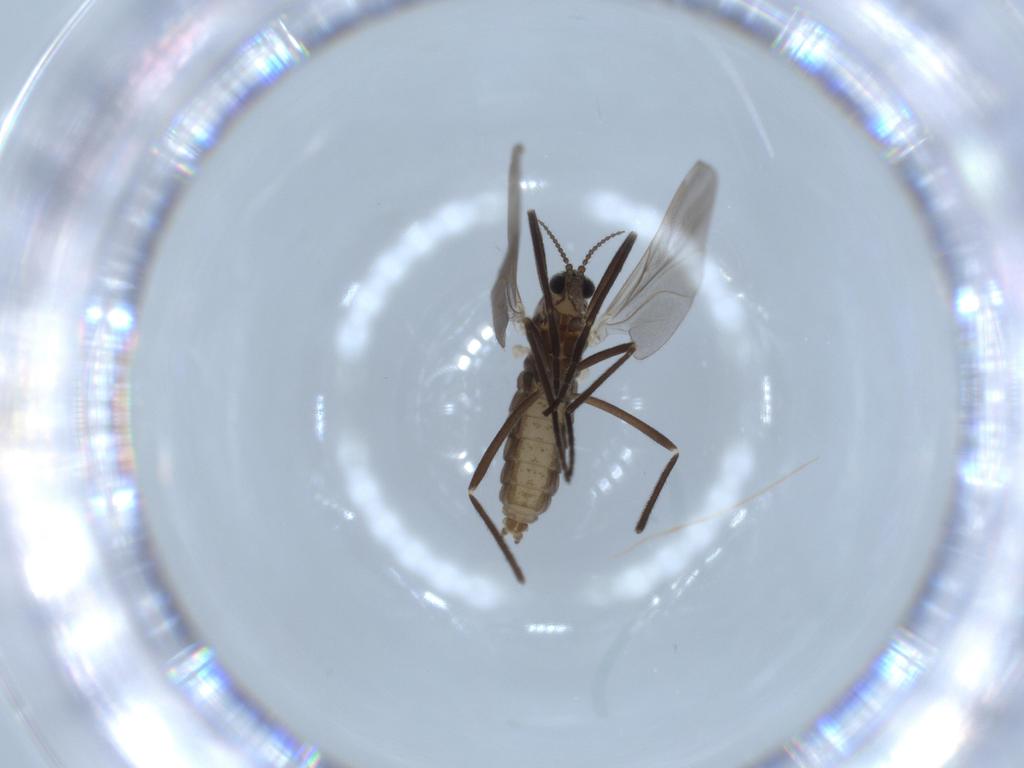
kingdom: Animalia
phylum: Arthropoda
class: Insecta
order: Diptera
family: Cecidomyiidae
